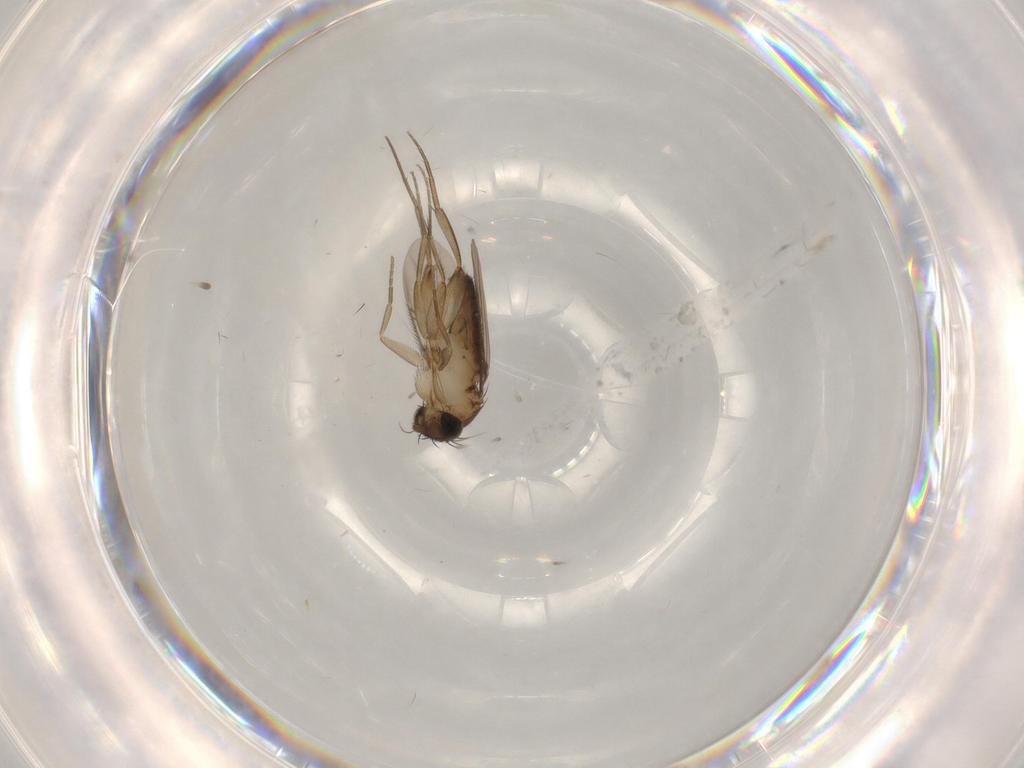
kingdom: Animalia
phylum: Arthropoda
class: Insecta
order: Diptera
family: Phoridae
